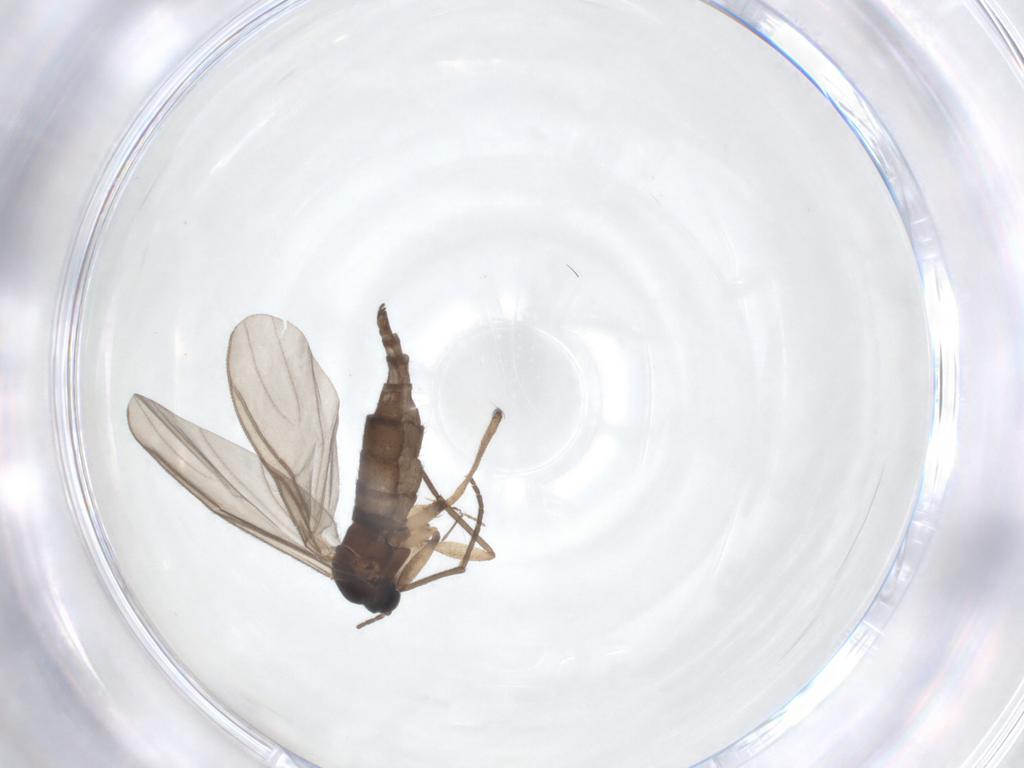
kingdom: Animalia
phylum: Arthropoda
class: Insecta
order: Diptera
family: Sciaridae
